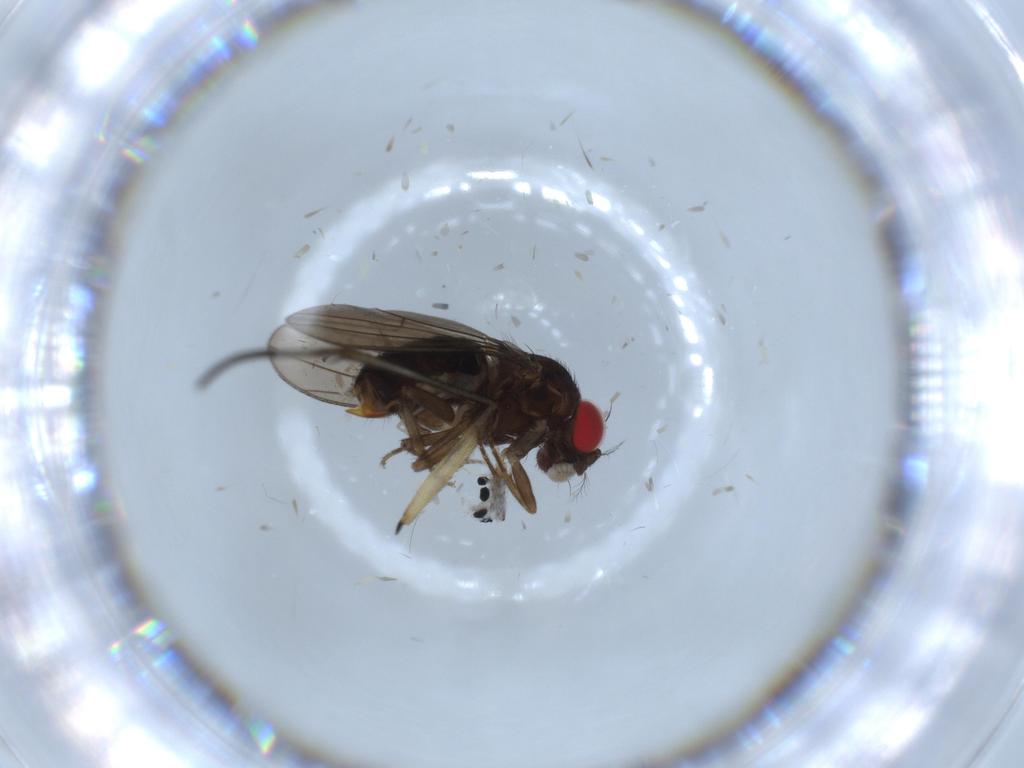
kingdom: Animalia
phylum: Arthropoda
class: Insecta
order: Diptera
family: Drosophilidae
